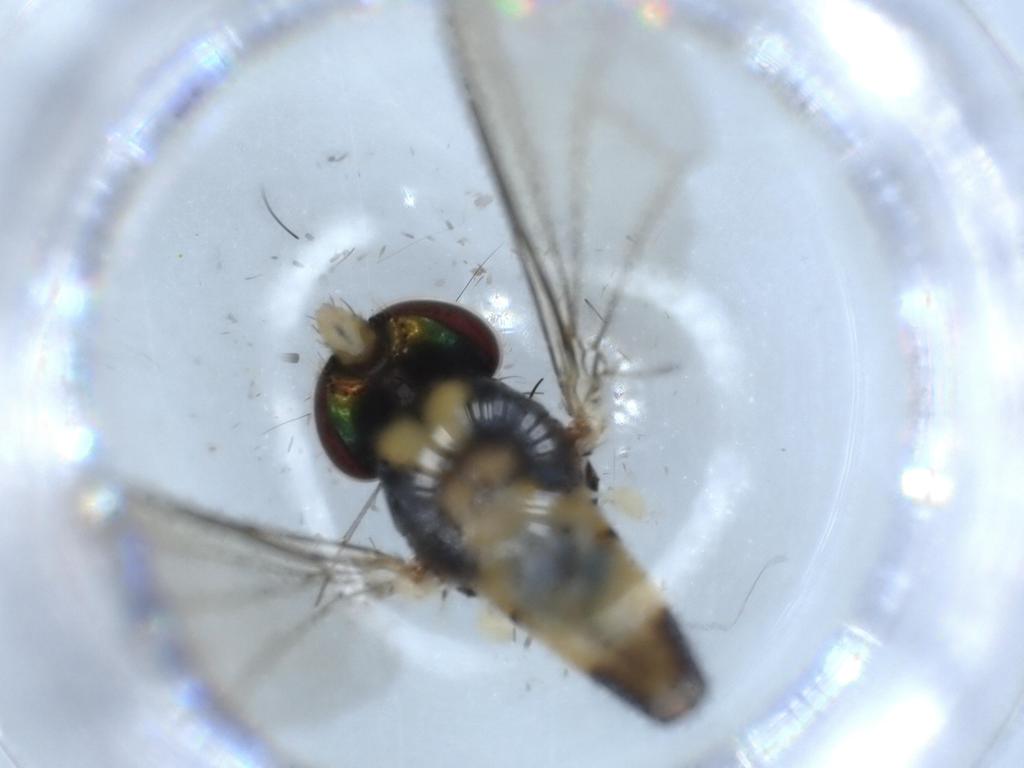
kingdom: Animalia
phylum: Arthropoda
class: Insecta
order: Diptera
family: Dolichopodidae
